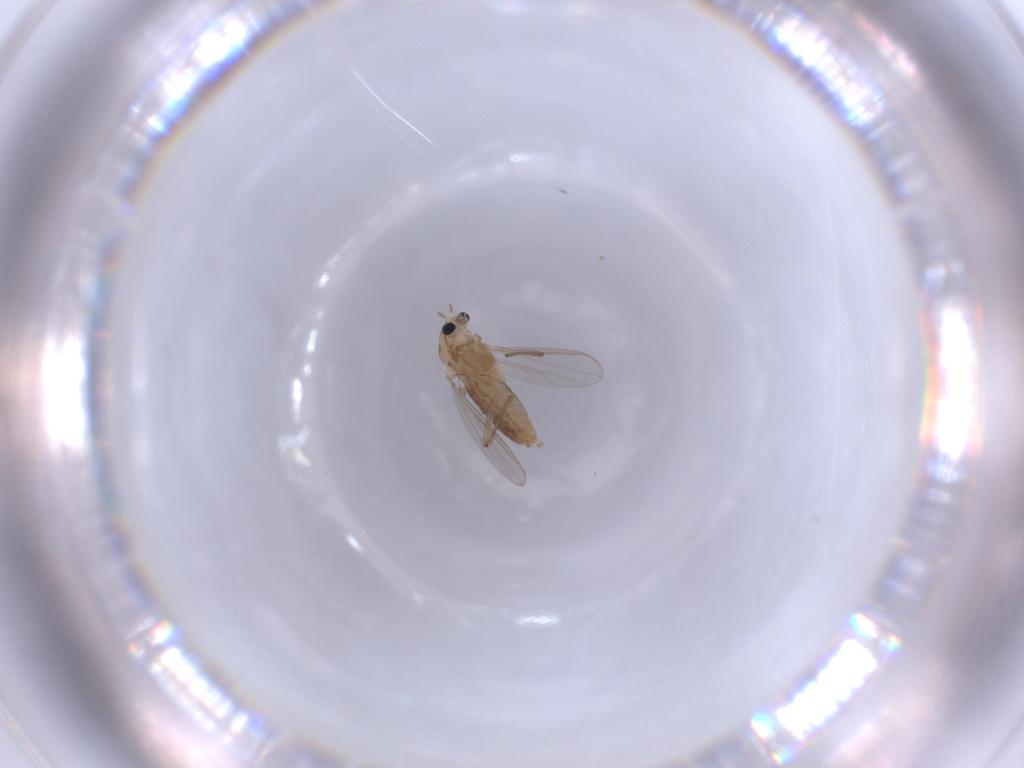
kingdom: Animalia
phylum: Arthropoda
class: Insecta
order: Diptera
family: Chironomidae
